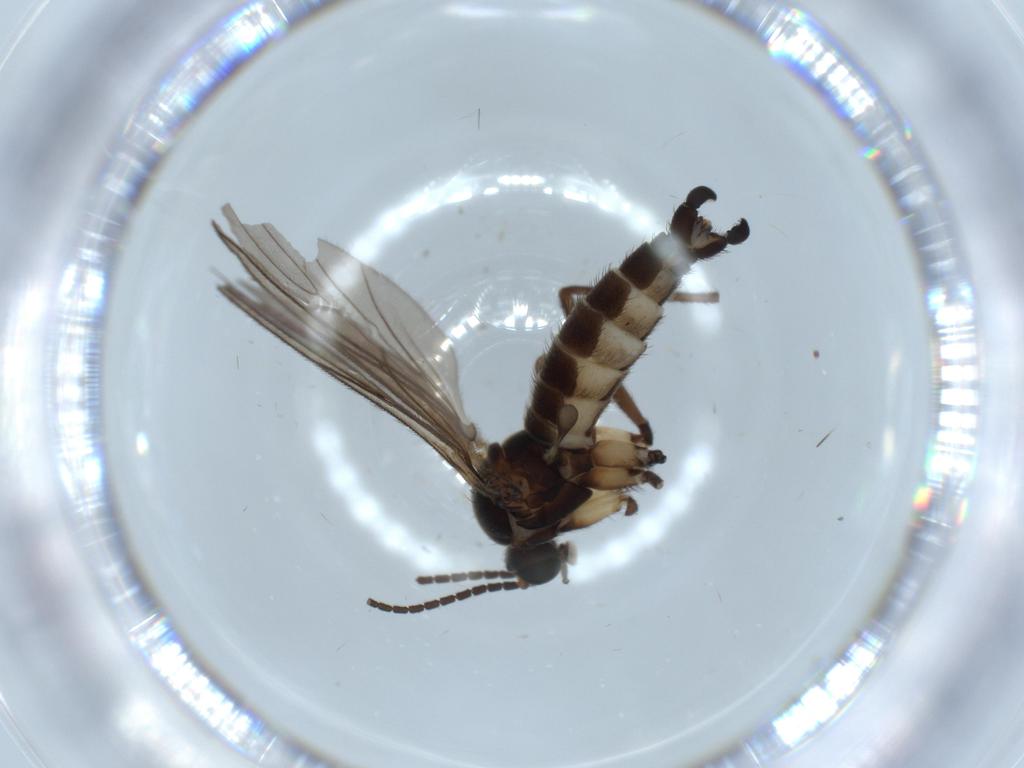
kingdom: Animalia
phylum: Arthropoda
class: Insecta
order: Diptera
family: Sciaridae
